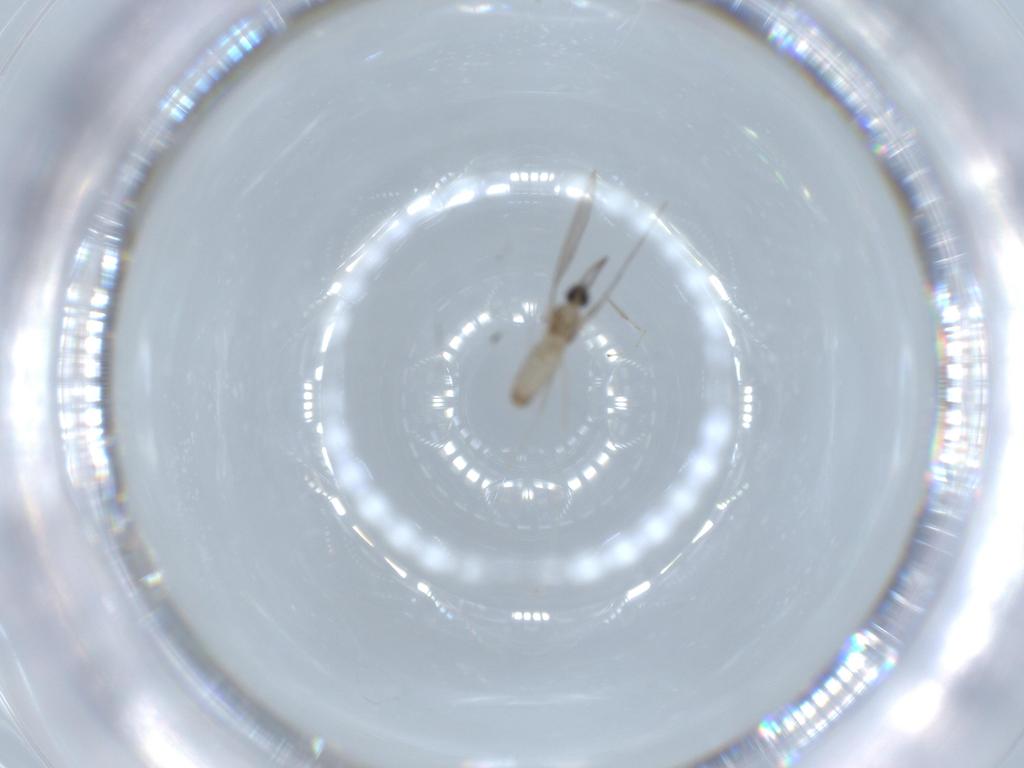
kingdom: Animalia
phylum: Arthropoda
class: Insecta
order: Diptera
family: Cecidomyiidae
